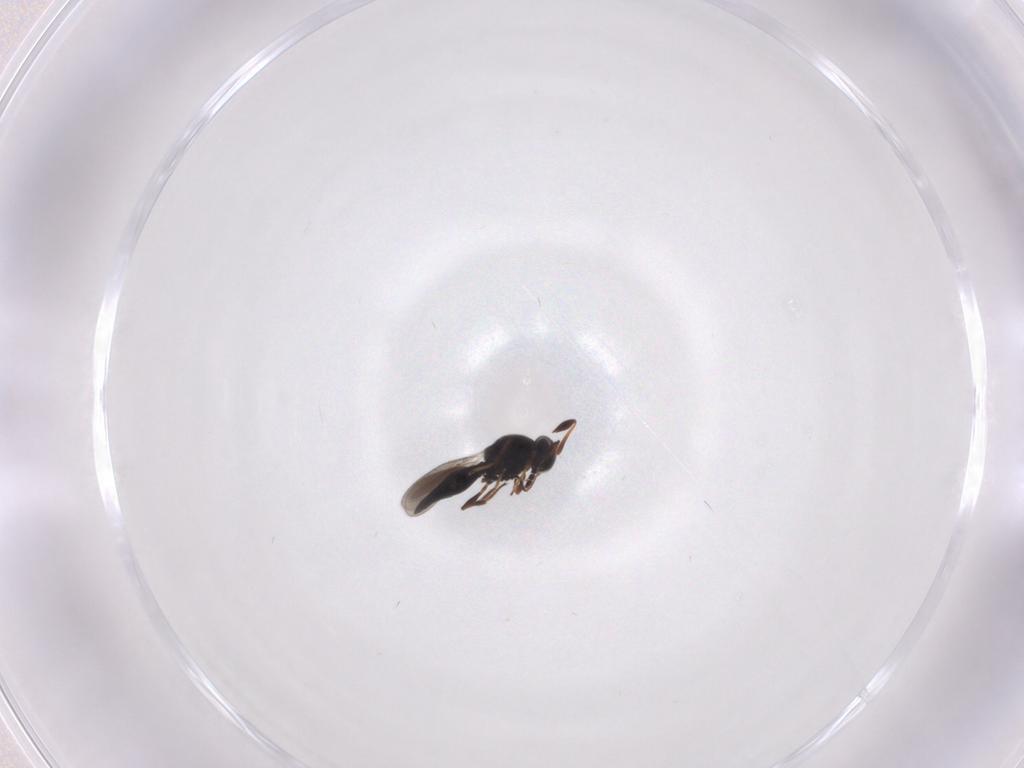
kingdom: Animalia
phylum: Arthropoda
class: Insecta
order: Hymenoptera
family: Platygastridae
